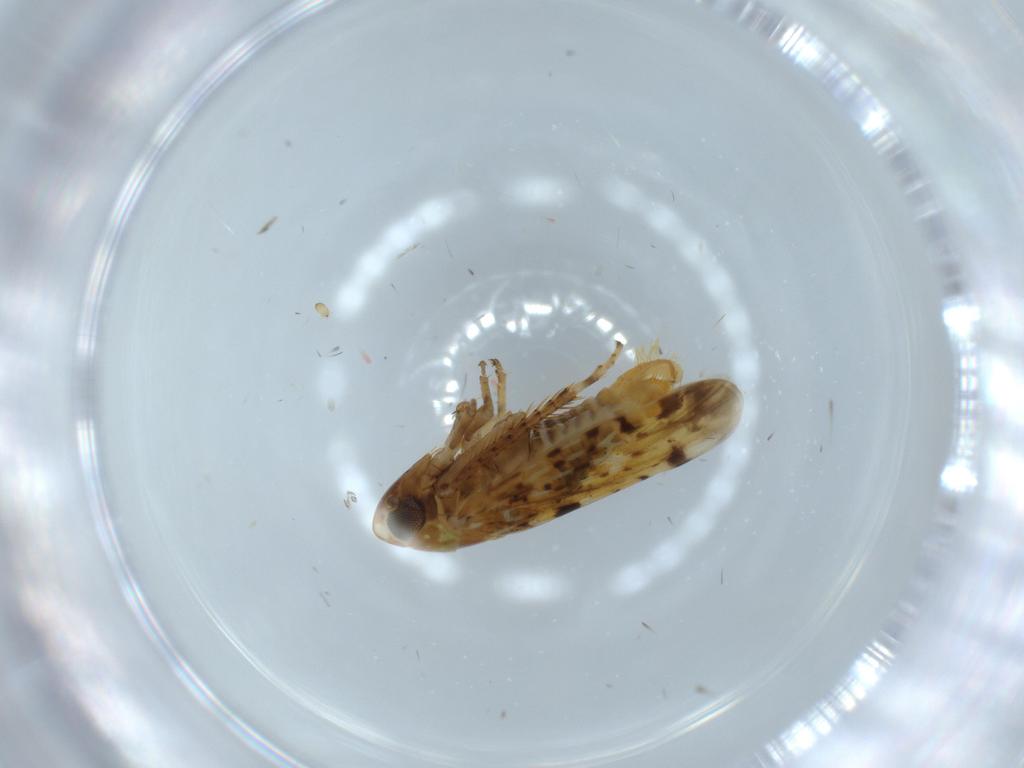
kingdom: Animalia
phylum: Arthropoda
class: Insecta
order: Hemiptera
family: Cicadellidae
